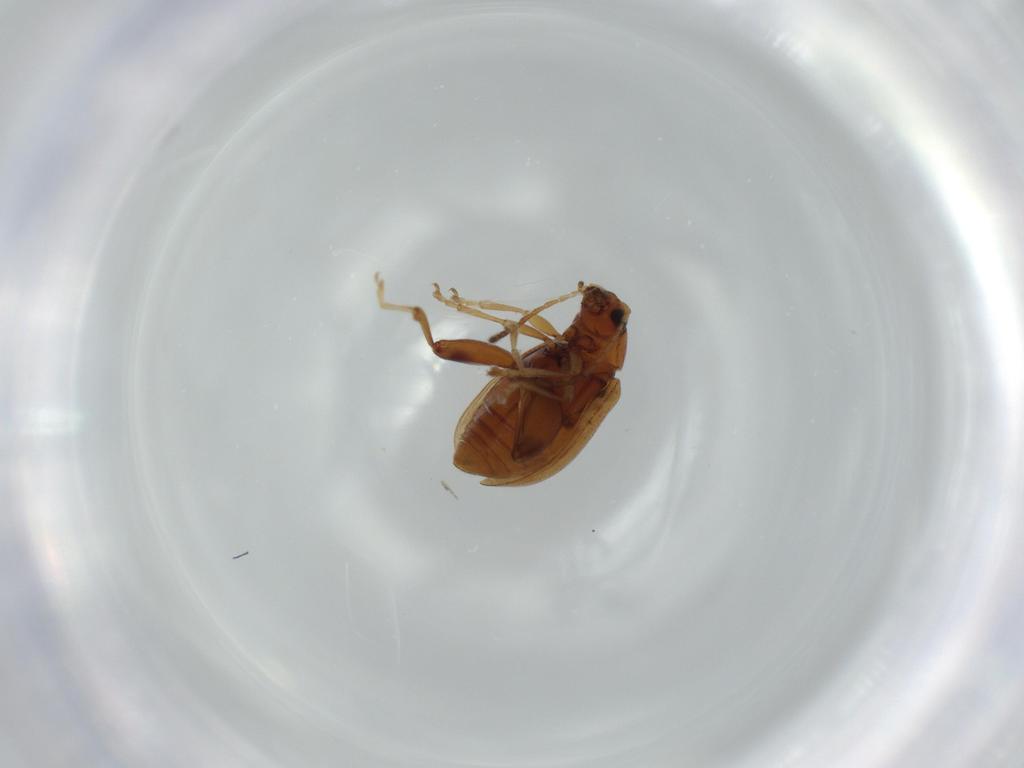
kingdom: Animalia
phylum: Arthropoda
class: Insecta
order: Coleoptera
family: Chrysomelidae
